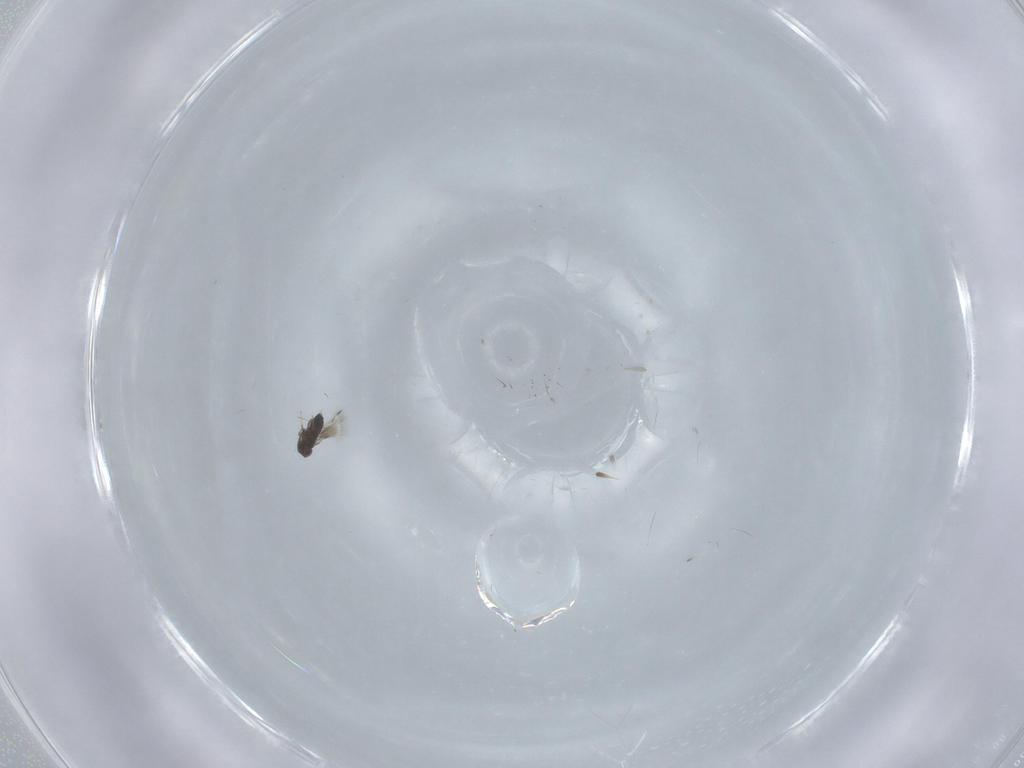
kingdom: Animalia
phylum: Arthropoda
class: Insecta
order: Hymenoptera
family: Signiphoridae
